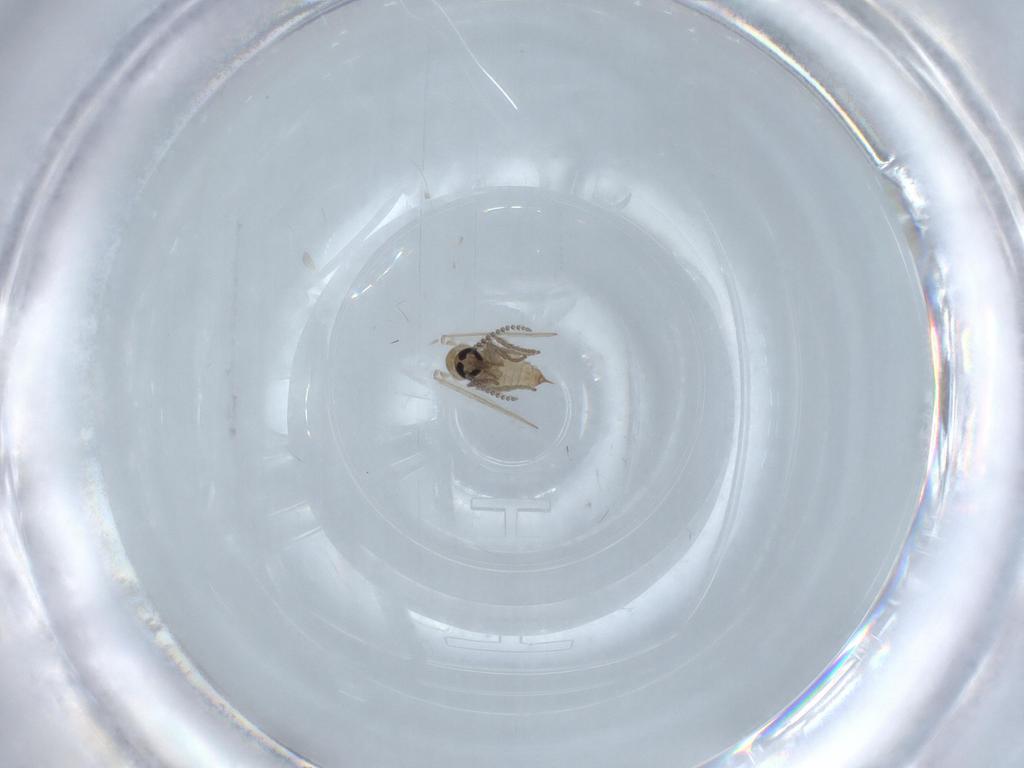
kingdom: Animalia
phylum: Arthropoda
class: Insecta
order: Diptera
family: Psychodidae
